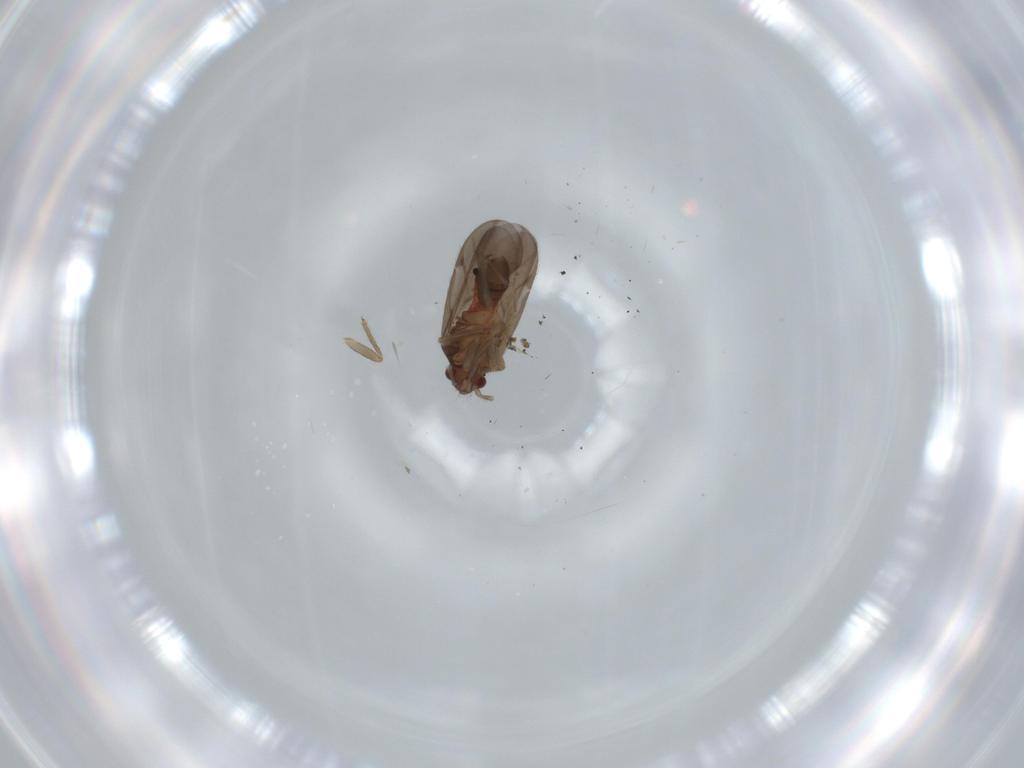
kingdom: Animalia
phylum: Arthropoda
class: Insecta
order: Hemiptera
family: Ceratocombidae
